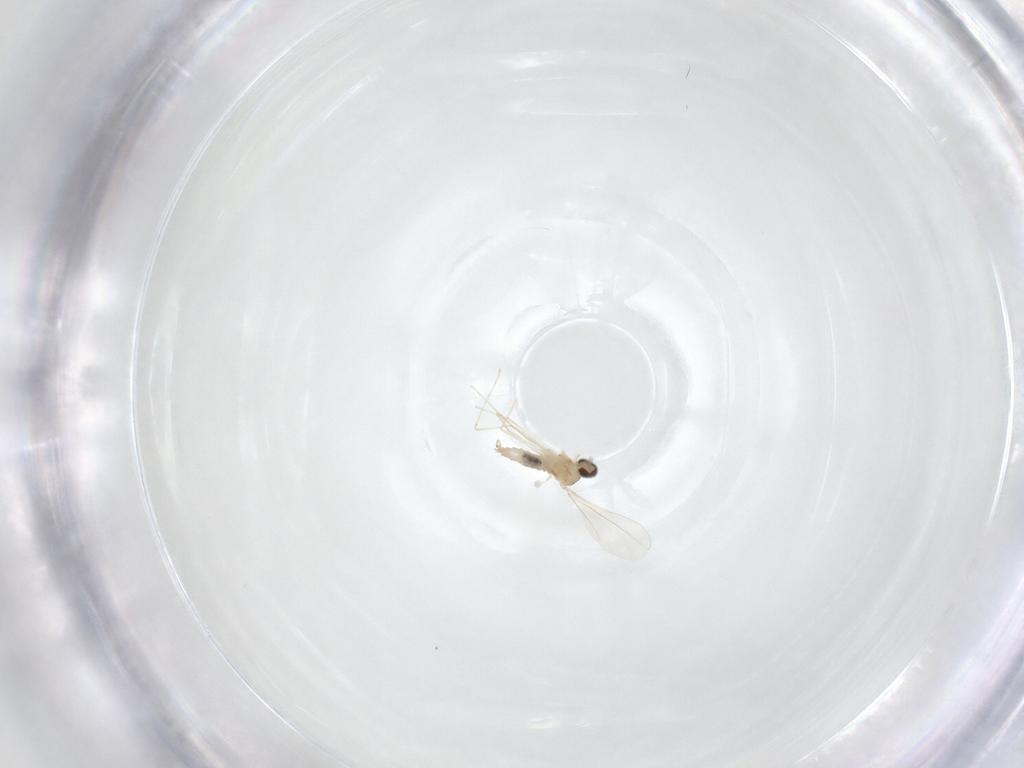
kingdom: Animalia
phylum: Arthropoda
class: Insecta
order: Diptera
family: Cecidomyiidae
